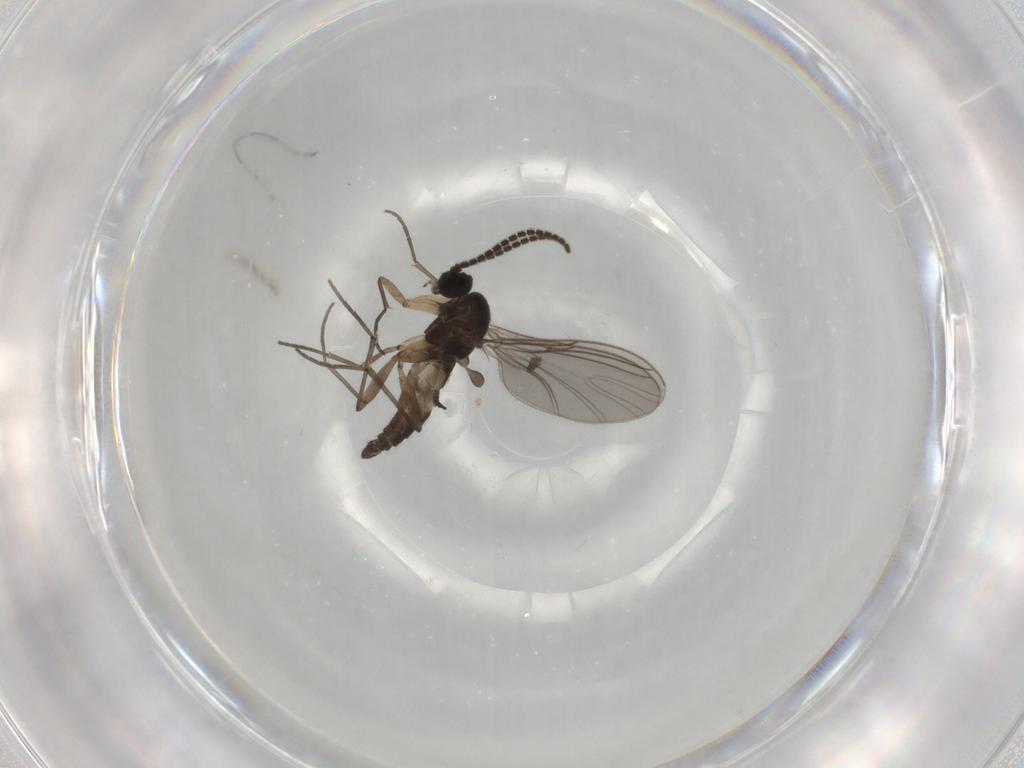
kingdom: Animalia
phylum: Arthropoda
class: Insecta
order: Diptera
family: Sciaridae
